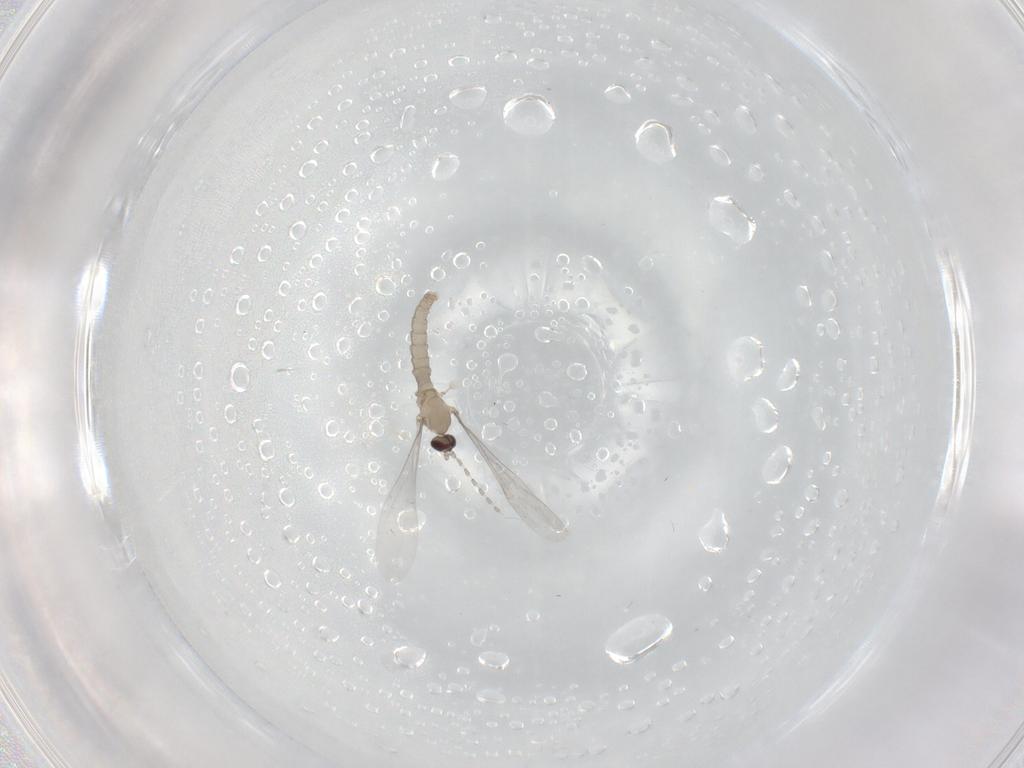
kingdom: Animalia
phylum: Arthropoda
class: Insecta
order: Diptera
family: Cecidomyiidae
